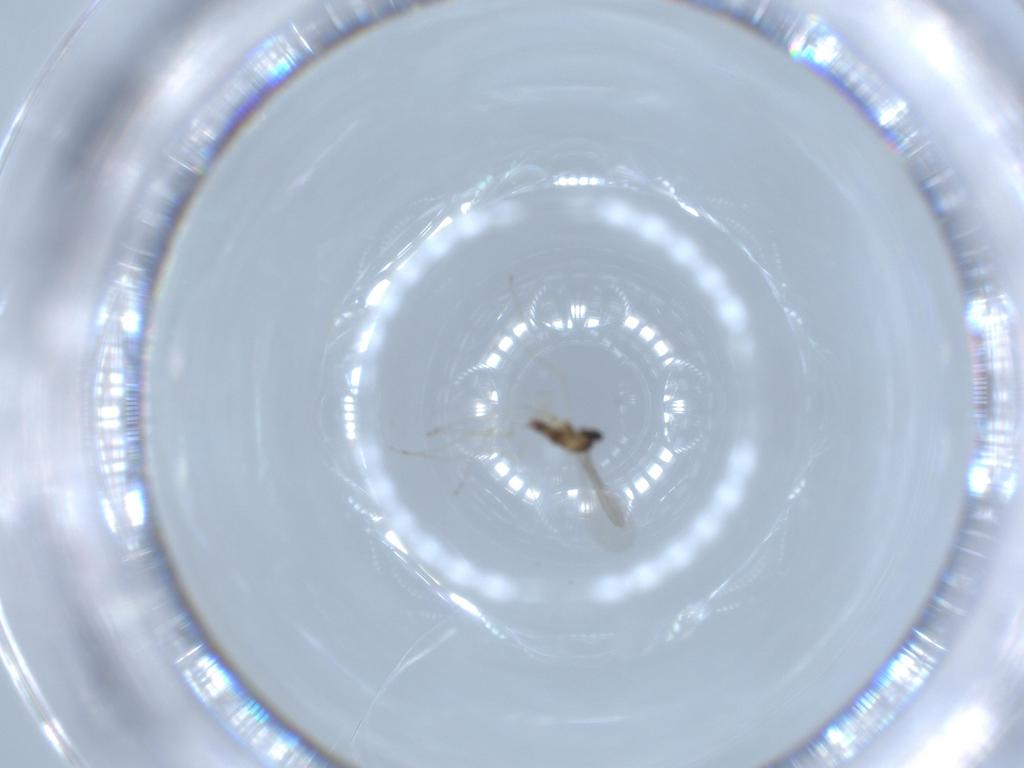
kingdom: Animalia
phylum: Arthropoda
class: Insecta
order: Diptera
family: Cecidomyiidae
